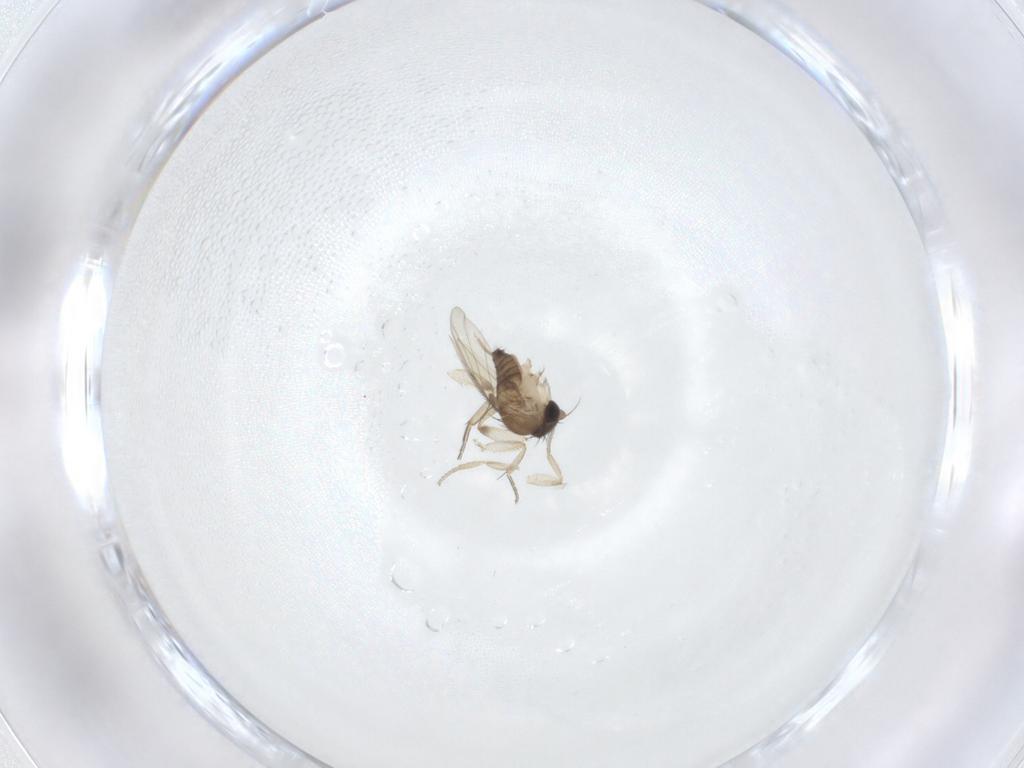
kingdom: Animalia
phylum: Arthropoda
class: Insecta
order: Diptera
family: Phoridae
